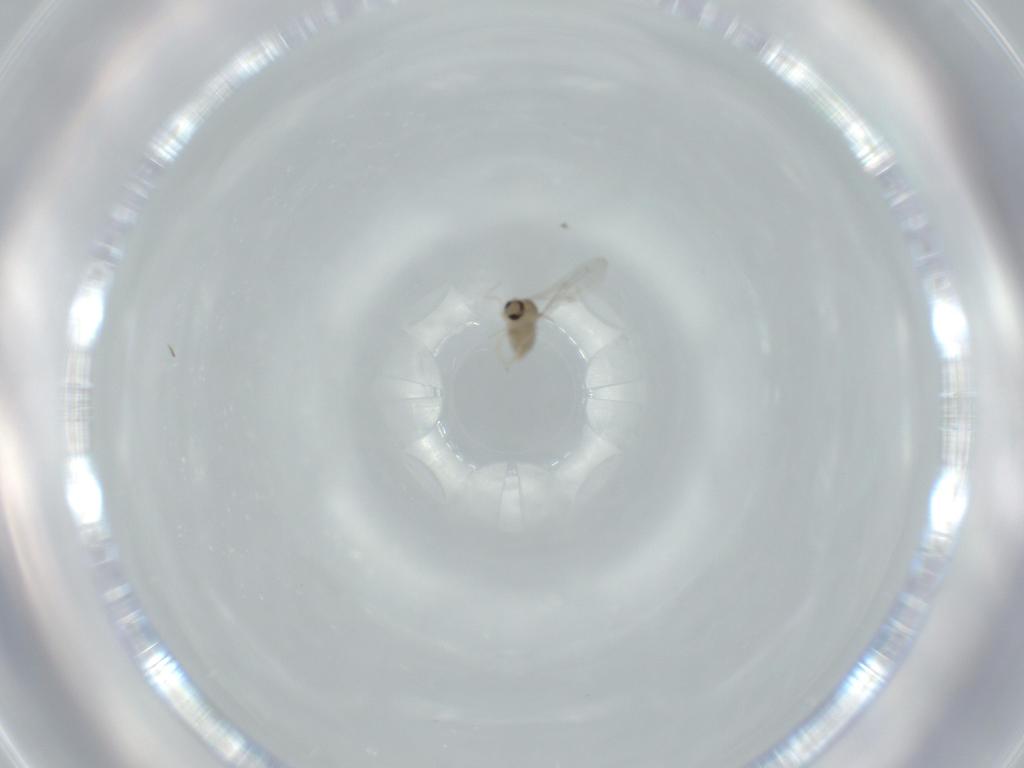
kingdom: Animalia
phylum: Arthropoda
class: Insecta
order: Diptera
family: Cecidomyiidae
